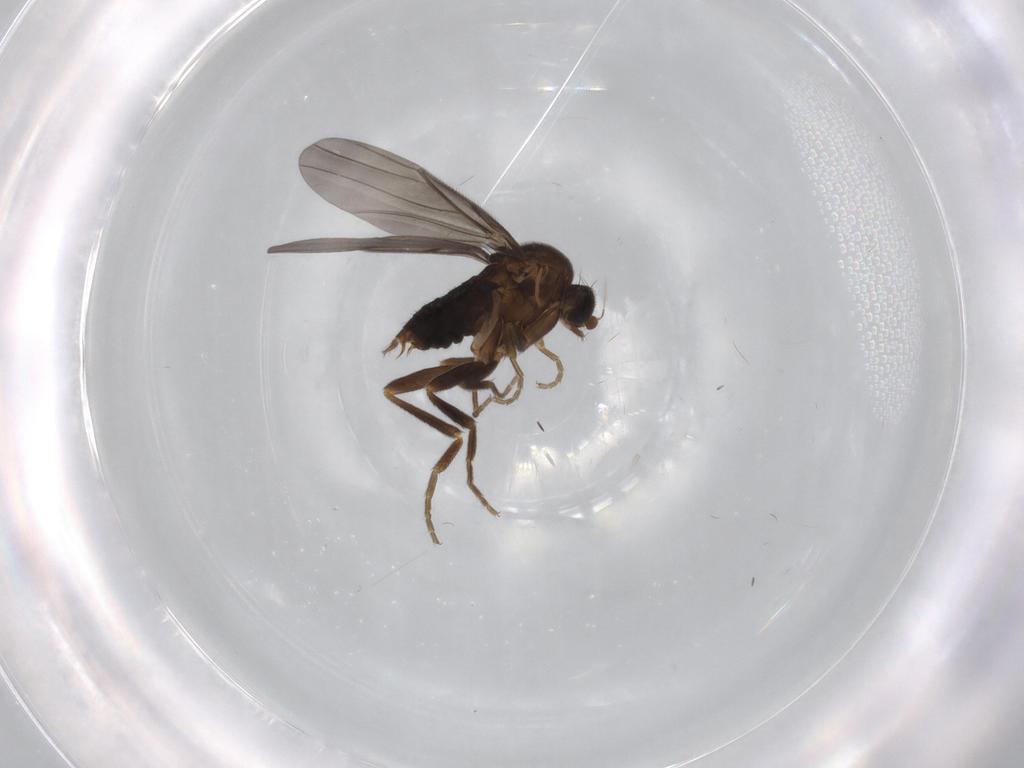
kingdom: Animalia
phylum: Arthropoda
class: Insecta
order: Diptera
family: Phoridae
